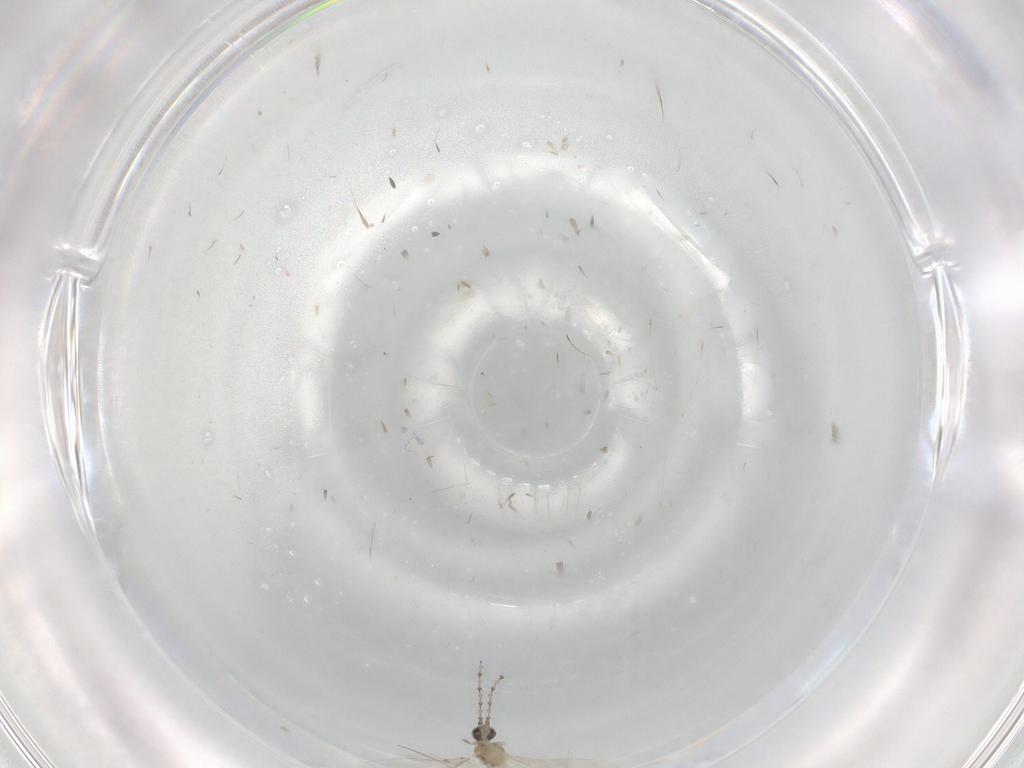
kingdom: Animalia
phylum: Arthropoda
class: Insecta
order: Diptera
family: Cecidomyiidae
